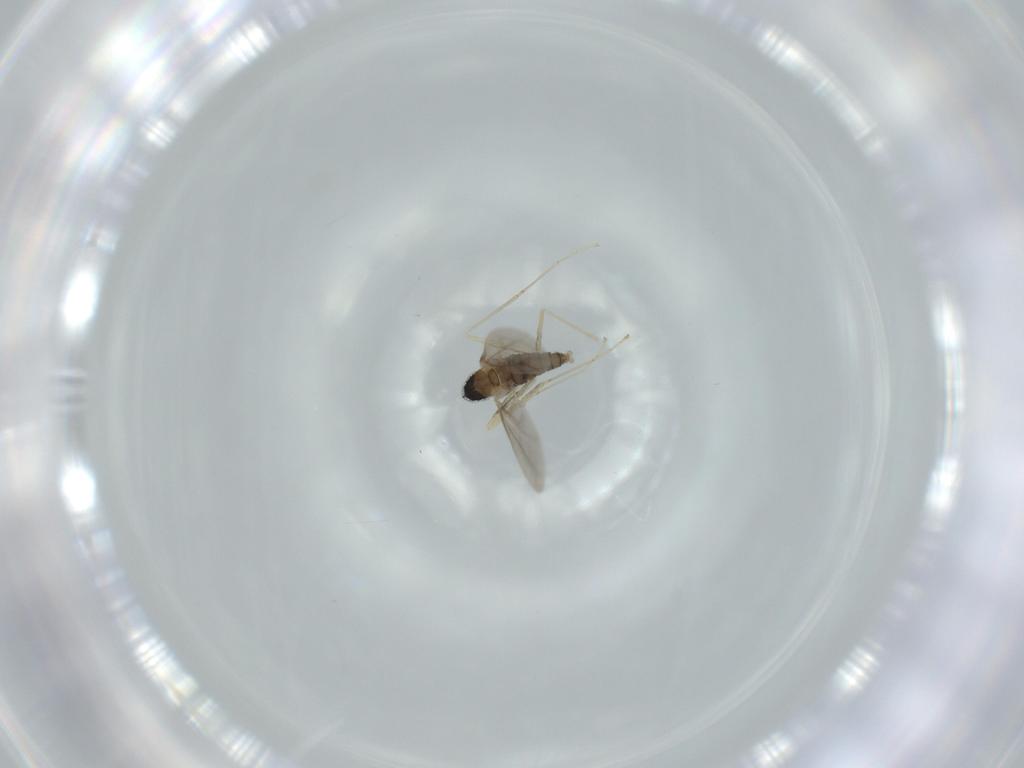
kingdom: Animalia
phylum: Arthropoda
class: Insecta
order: Diptera
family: Cecidomyiidae
